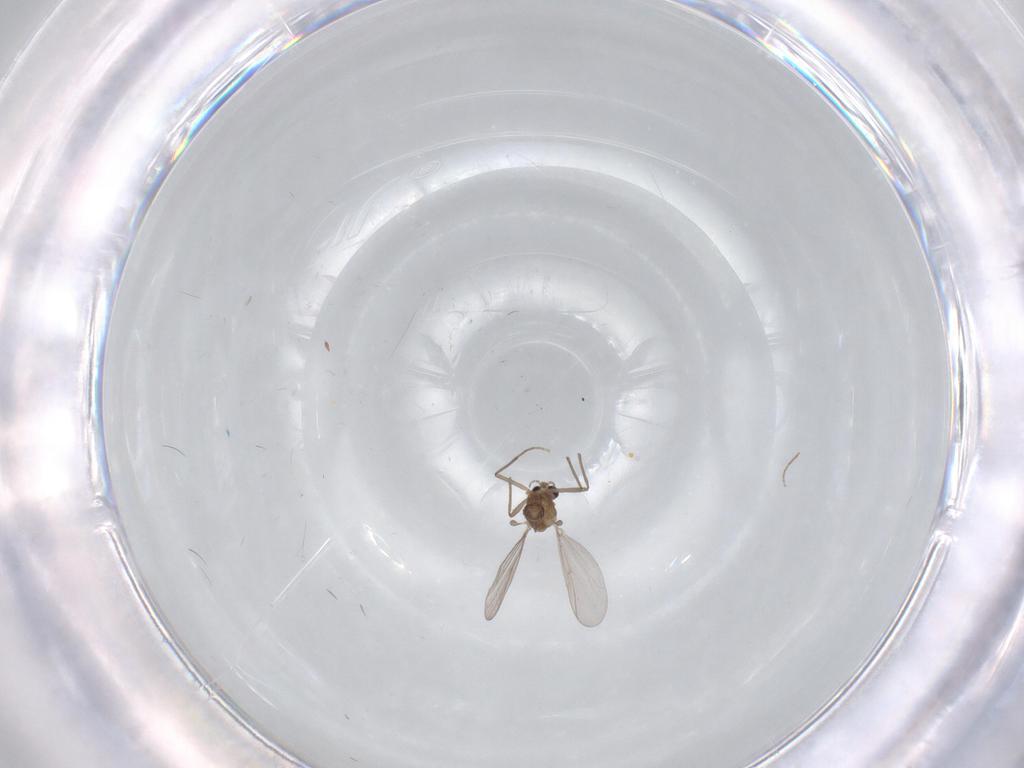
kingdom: Animalia
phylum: Arthropoda
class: Insecta
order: Diptera
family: Chironomidae
